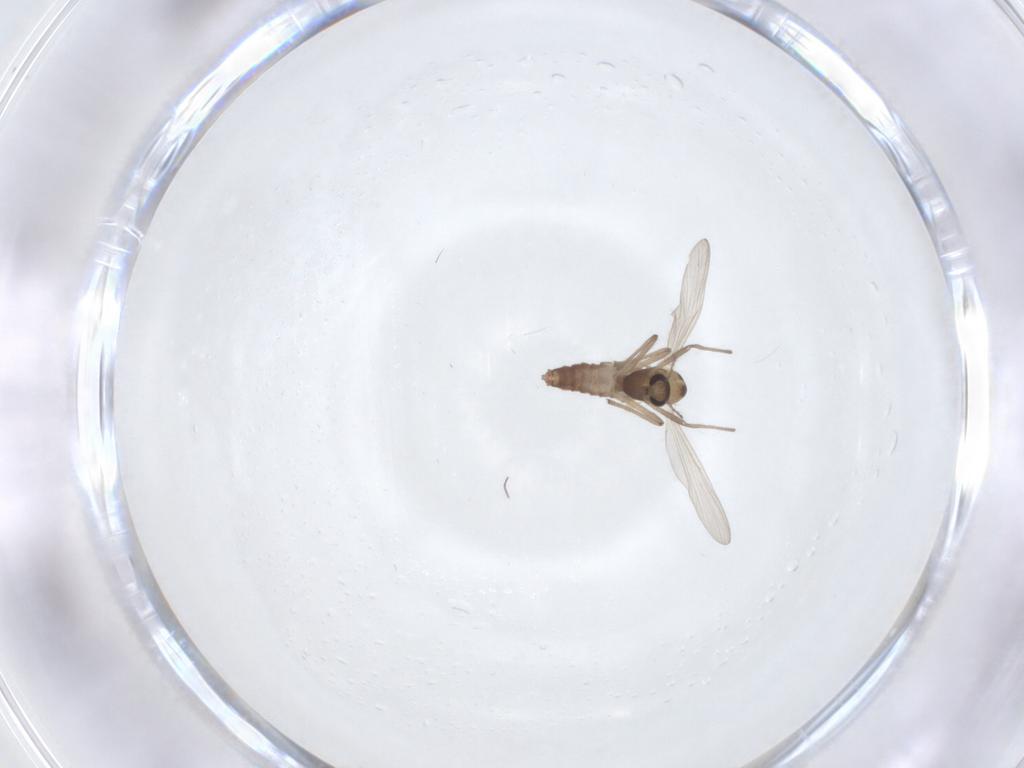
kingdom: Animalia
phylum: Arthropoda
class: Insecta
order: Diptera
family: Chironomidae
